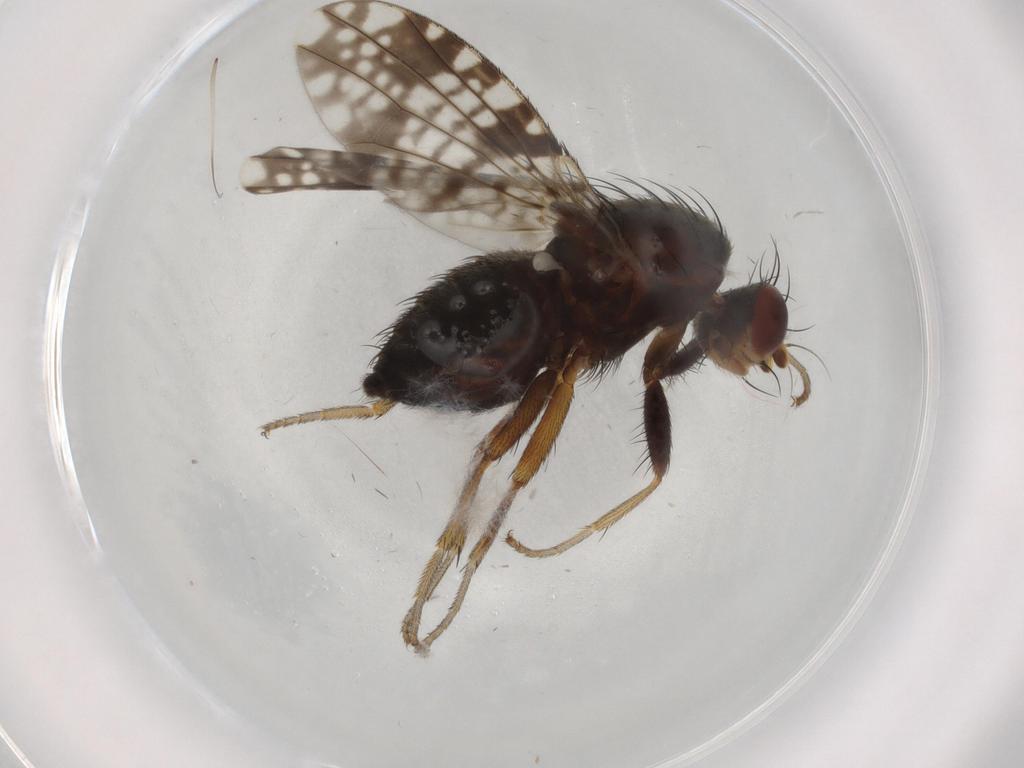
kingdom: Animalia
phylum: Arthropoda
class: Insecta
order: Diptera
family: Tephritidae
